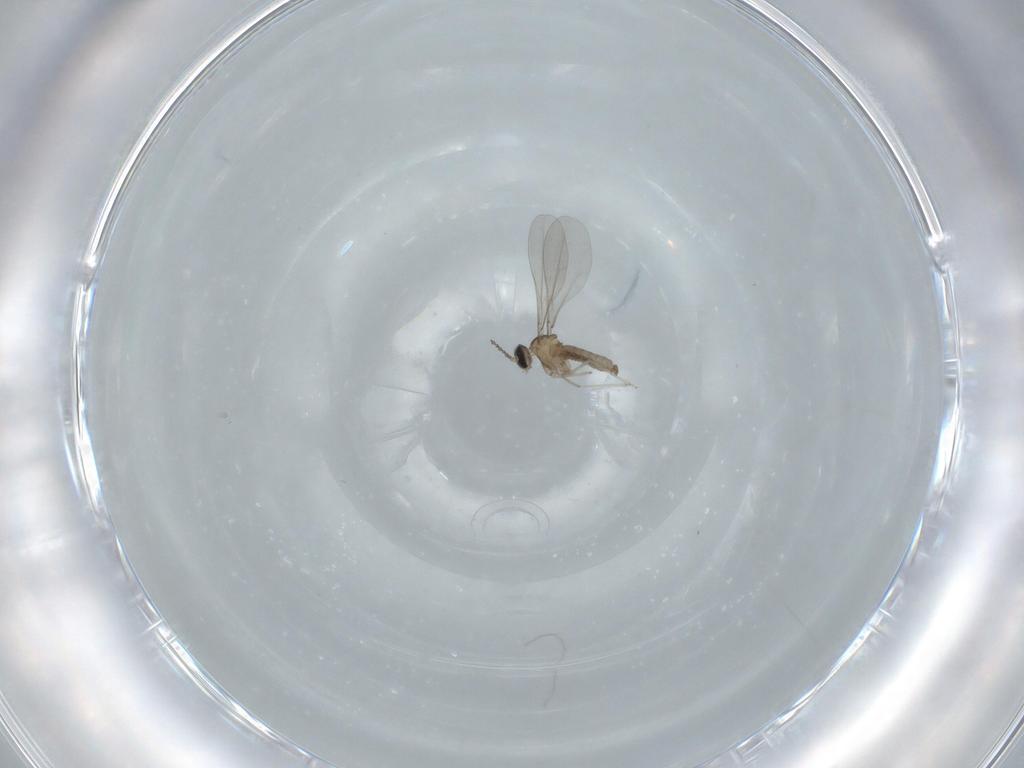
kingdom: Animalia
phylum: Arthropoda
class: Insecta
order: Diptera
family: Cecidomyiidae
